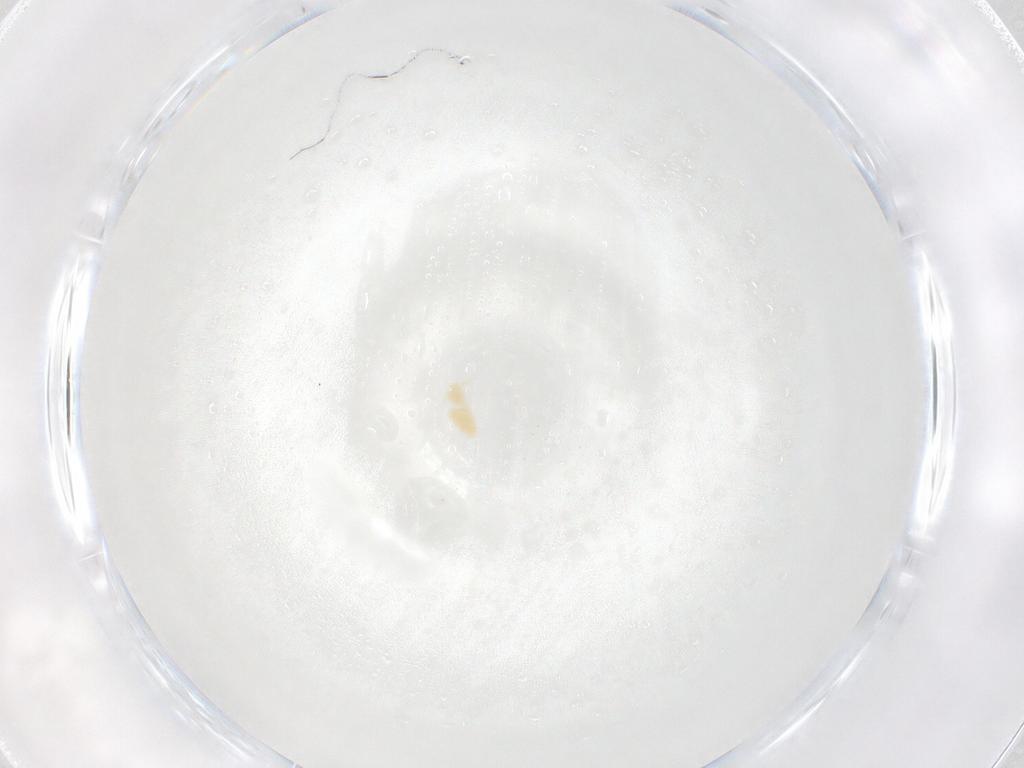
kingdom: Animalia
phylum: Arthropoda
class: Arachnida
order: Trombidiformes
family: Eupodidae
